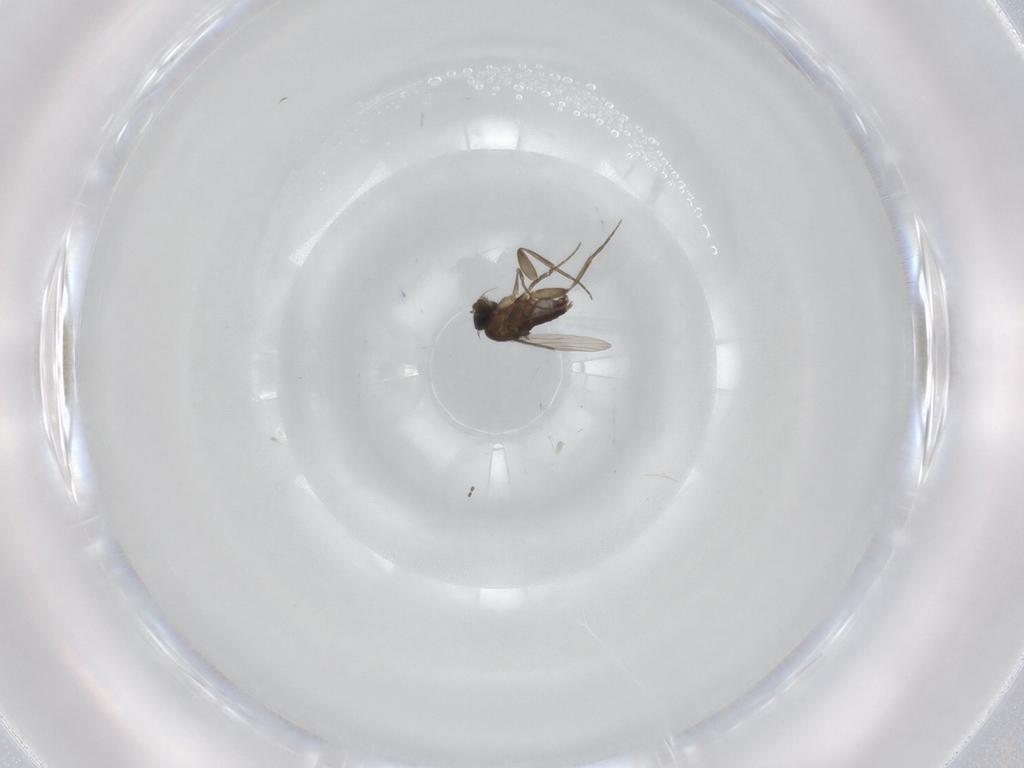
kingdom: Animalia
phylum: Arthropoda
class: Insecta
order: Diptera
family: Phoridae
